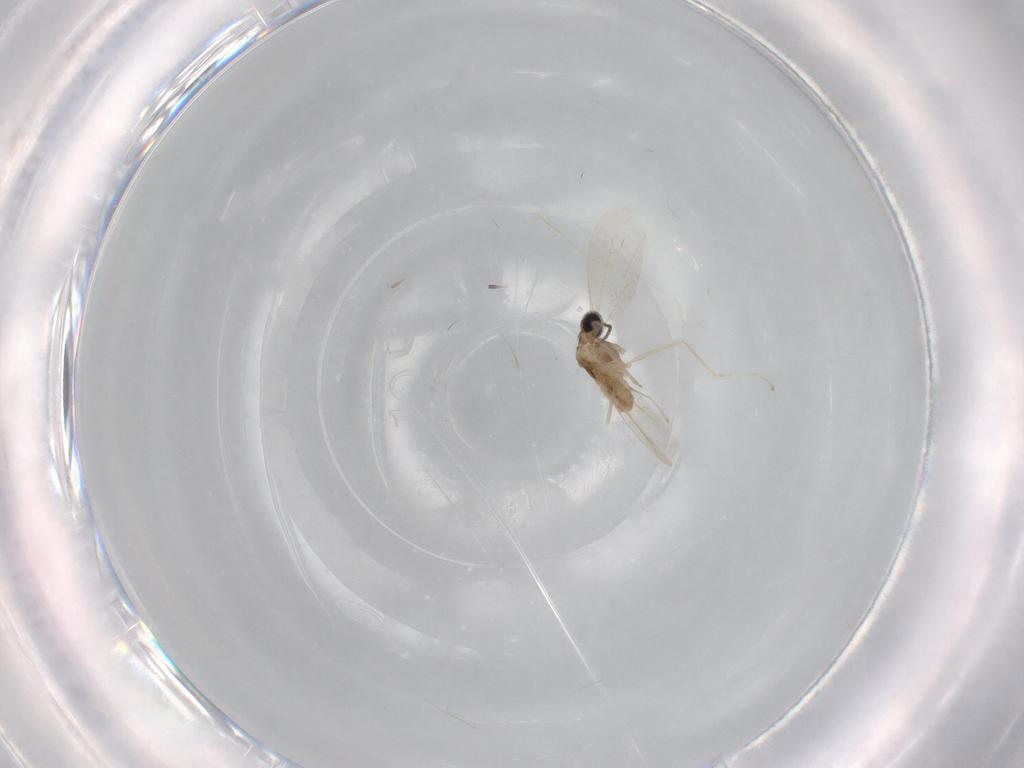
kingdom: Animalia
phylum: Arthropoda
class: Insecta
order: Diptera
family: Cecidomyiidae
